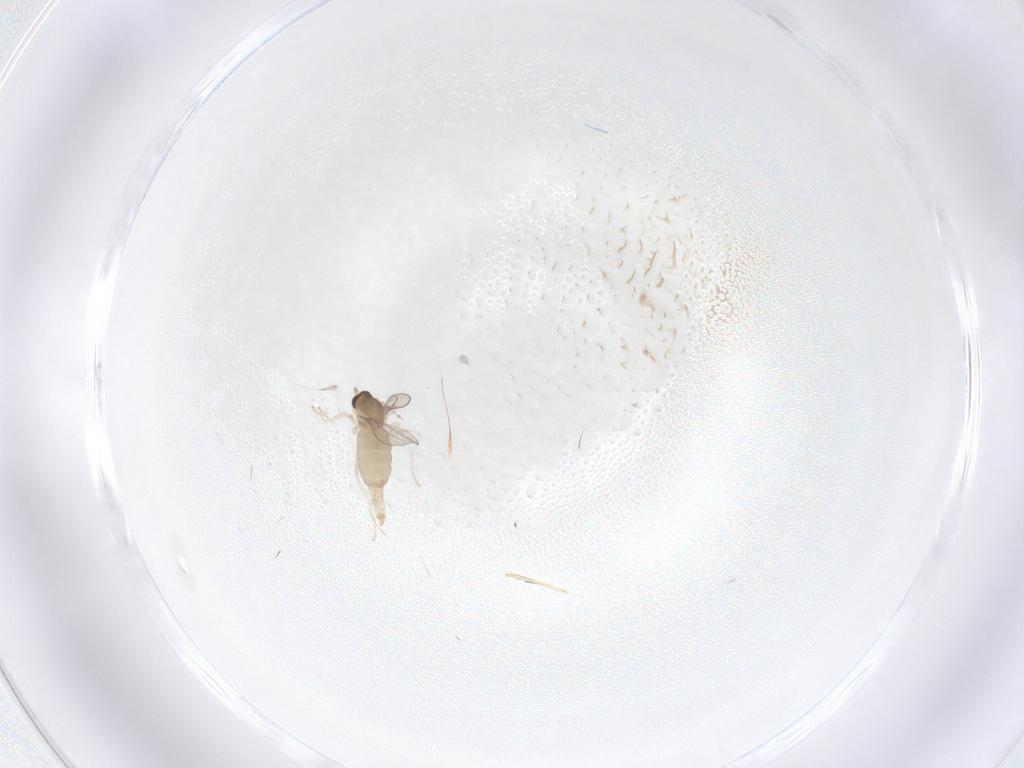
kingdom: Animalia
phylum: Arthropoda
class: Insecta
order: Diptera
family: Cecidomyiidae
